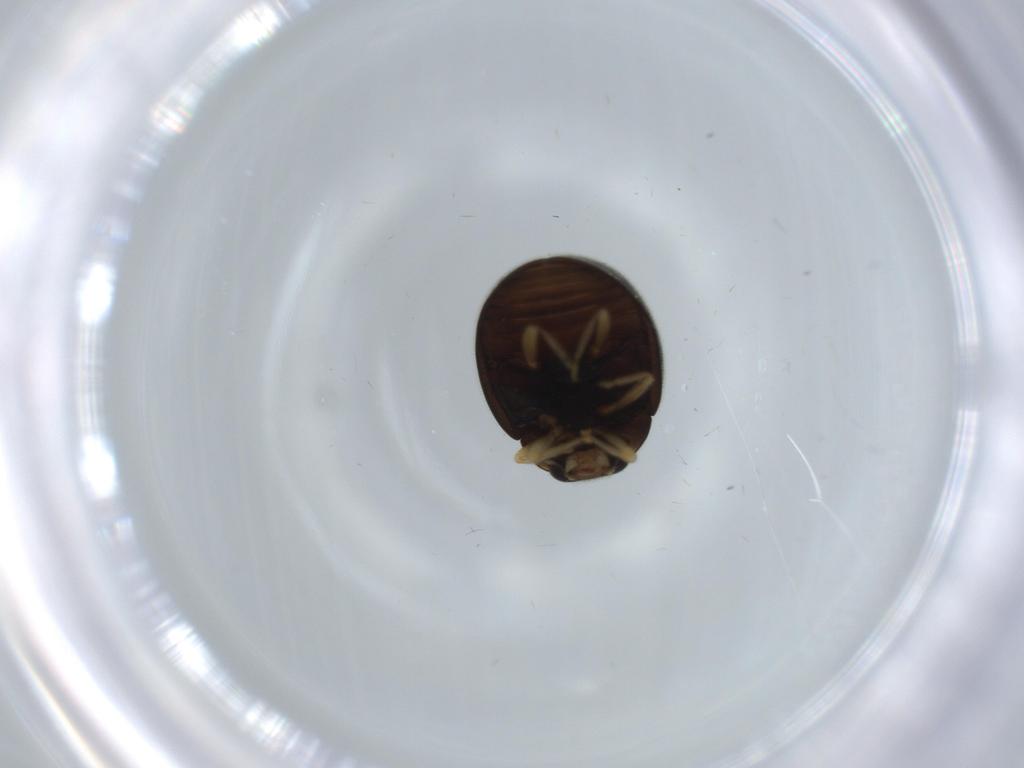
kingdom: Animalia
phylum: Arthropoda
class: Insecta
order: Coleoptera
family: Coccinellidae
